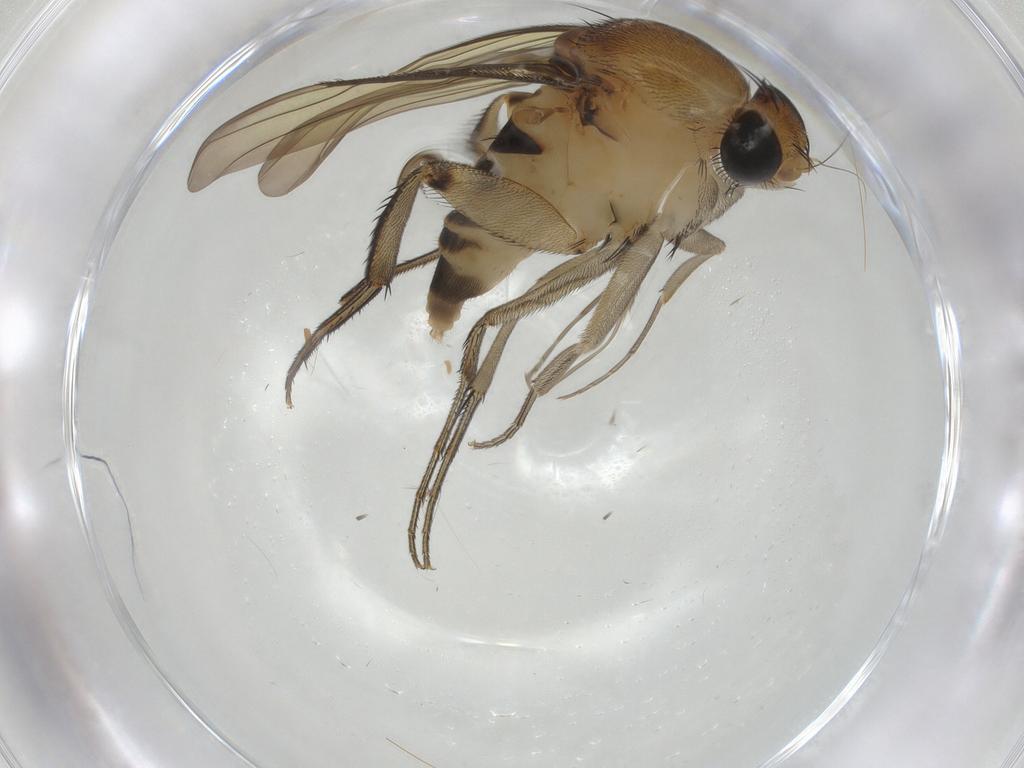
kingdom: Animalia
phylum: Arthropoda
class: Insecta
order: Diptera
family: Phoridae
